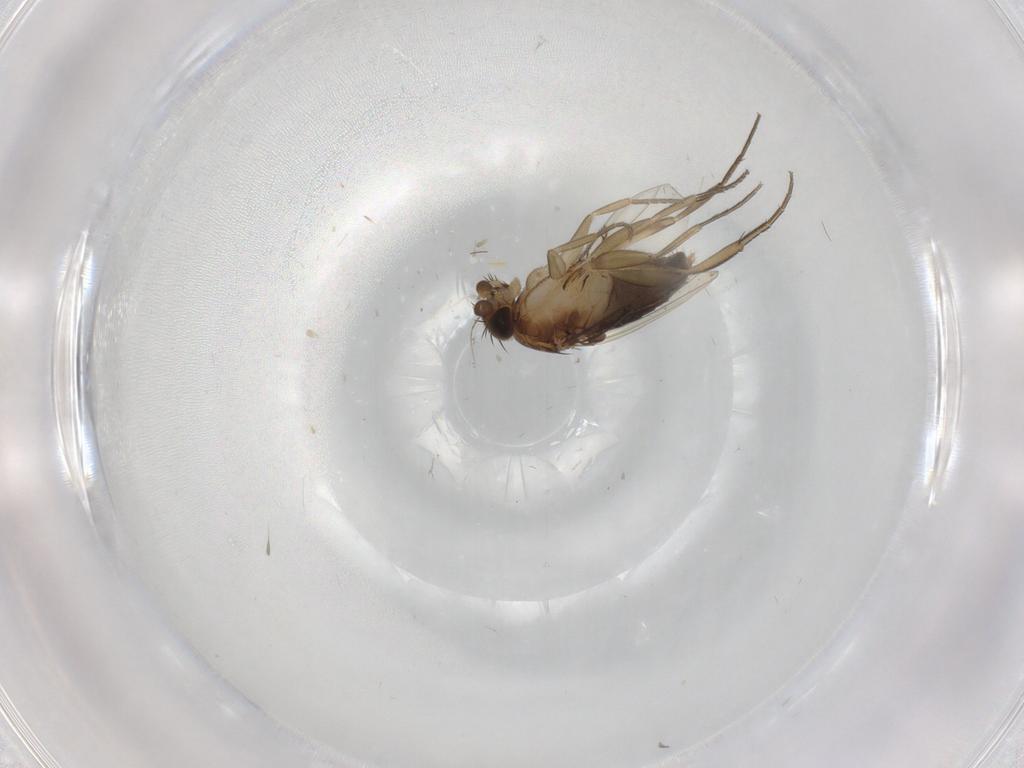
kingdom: Animalia
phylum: Arthropoda
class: Insecta
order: Diptera
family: Phoridae
